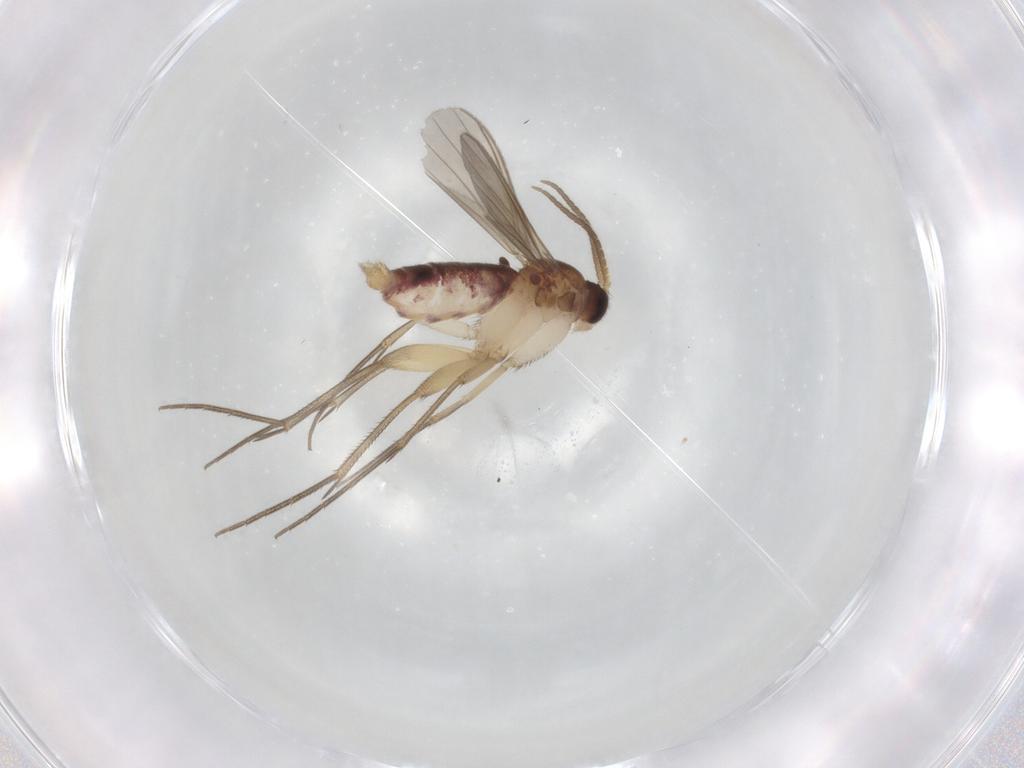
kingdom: Animalia
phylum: Arthropoda
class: Insecta
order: Diptera
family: Mycetophilidae
